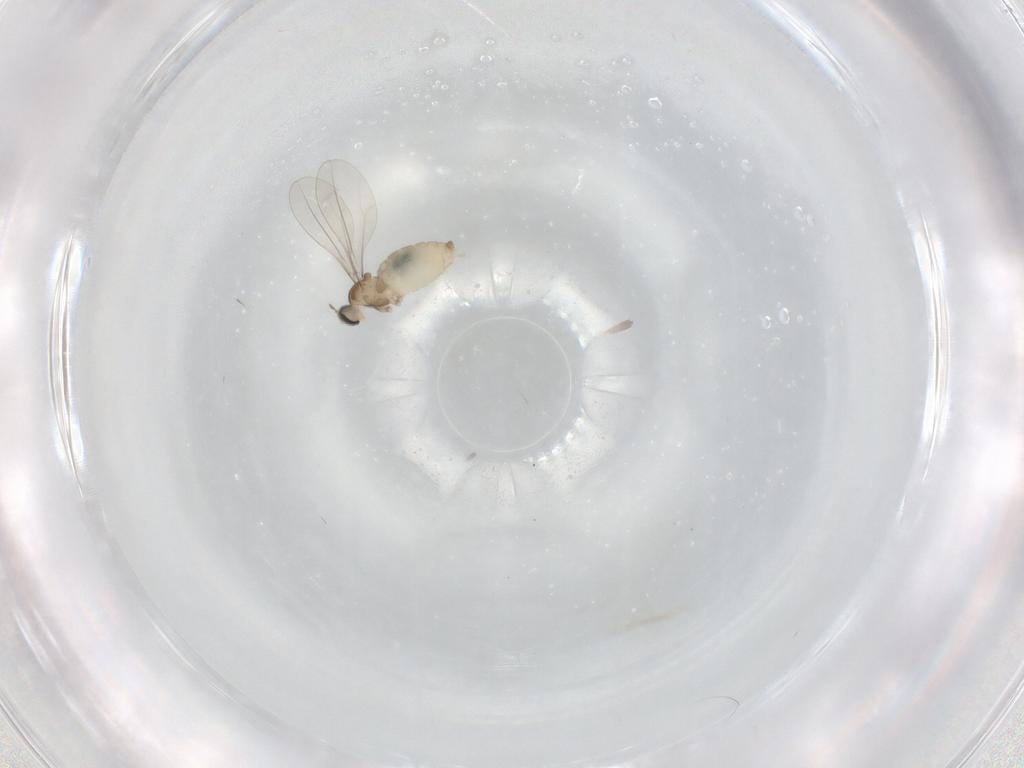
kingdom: Animalia
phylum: Arthropoda
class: Insecta
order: Diptera
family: Cecidomyiidae
